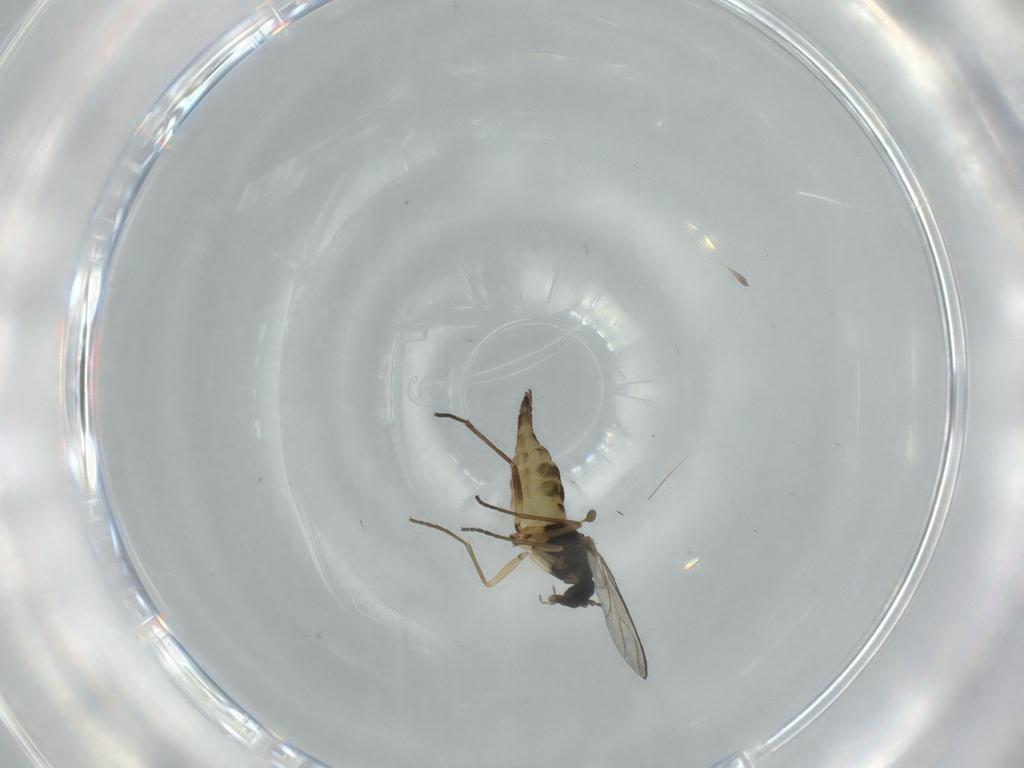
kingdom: Animalia
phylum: Arthropoda
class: Insecta
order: Diptera
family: Sciaridae
